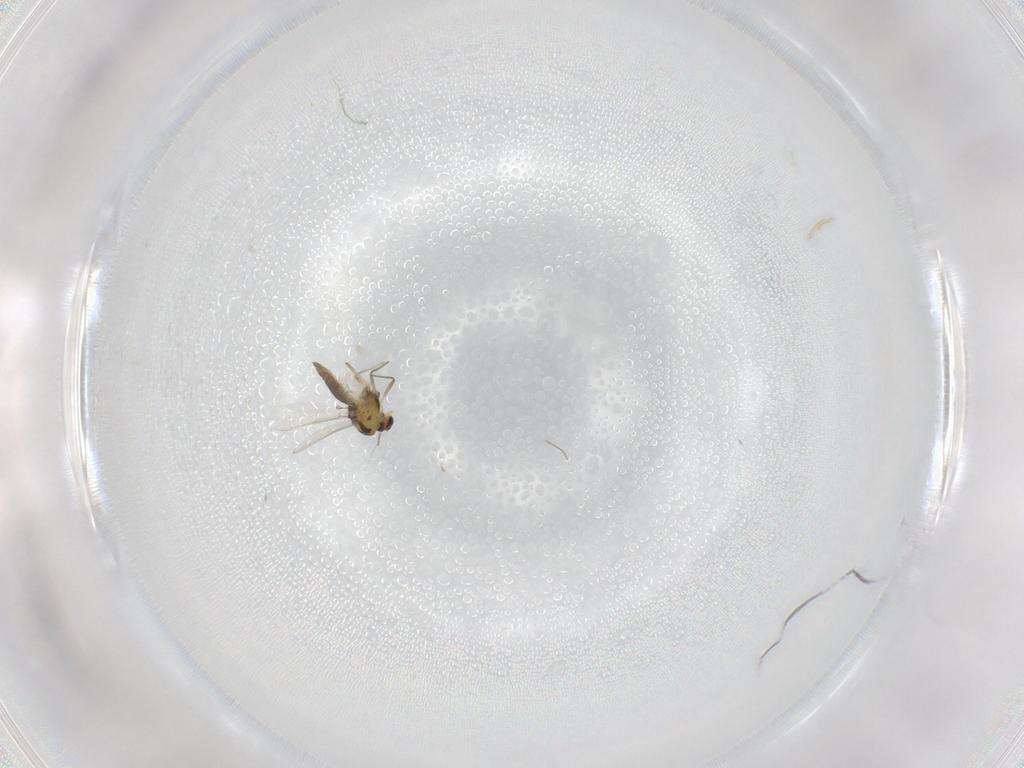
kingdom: Animalia
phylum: Arthropoda
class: Insecta
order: Diptera
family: Chironomidae
